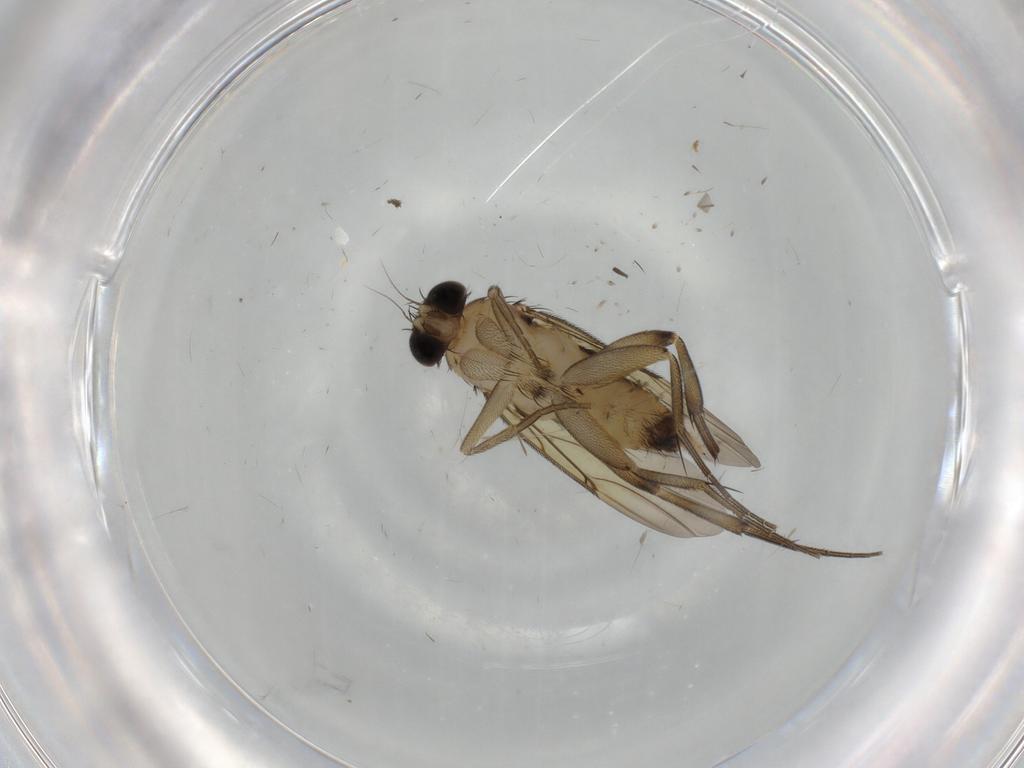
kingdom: Animalia
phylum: Arthropoda
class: Insecta
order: Diptera
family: Phoridae
